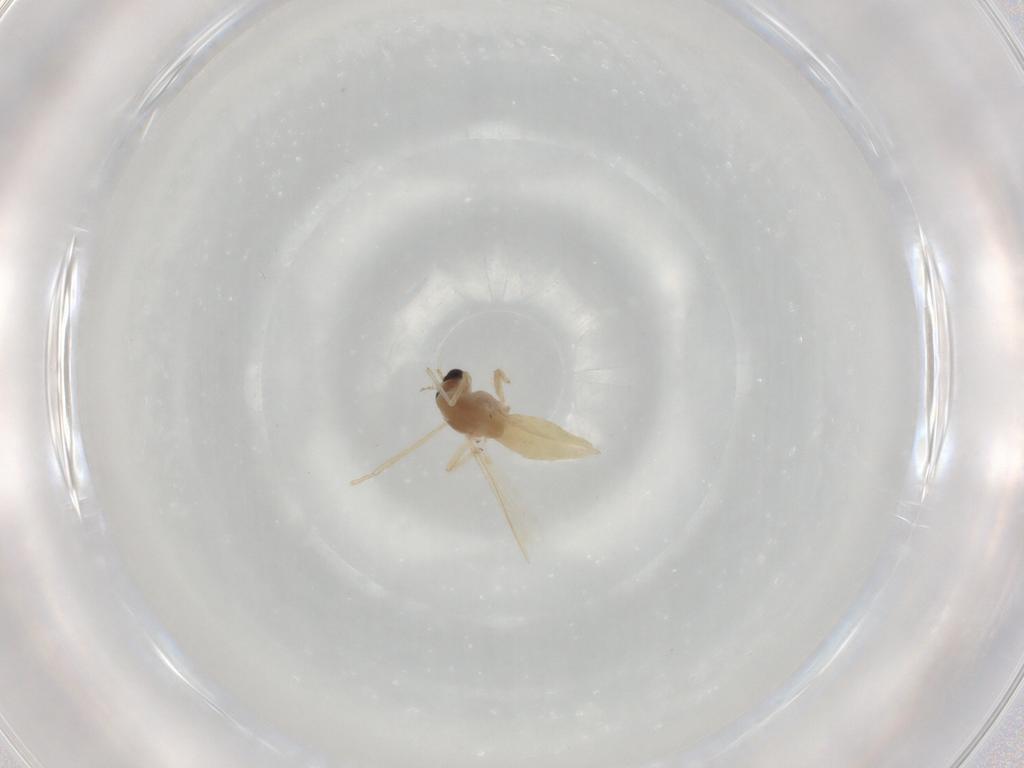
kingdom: Animalia
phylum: Arthropoda
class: Insecta
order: Diptera
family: Chironomidae
